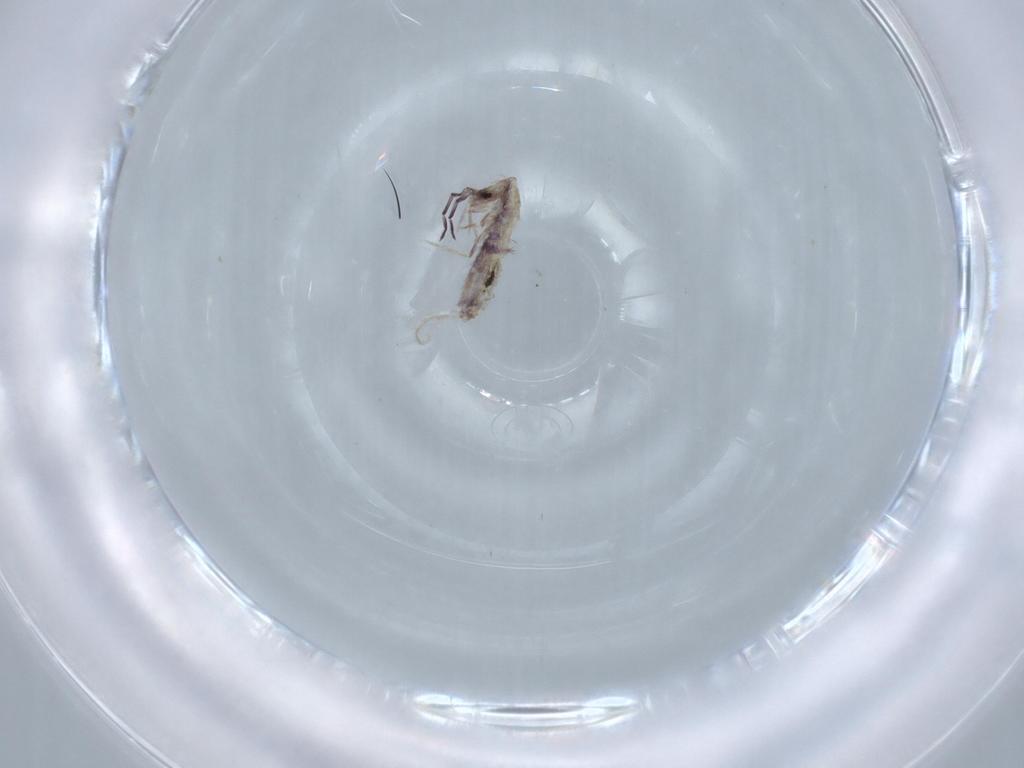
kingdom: Animalia
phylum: Arthropoda
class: Collembola
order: Poduromorpha
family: Hypogastruridae
